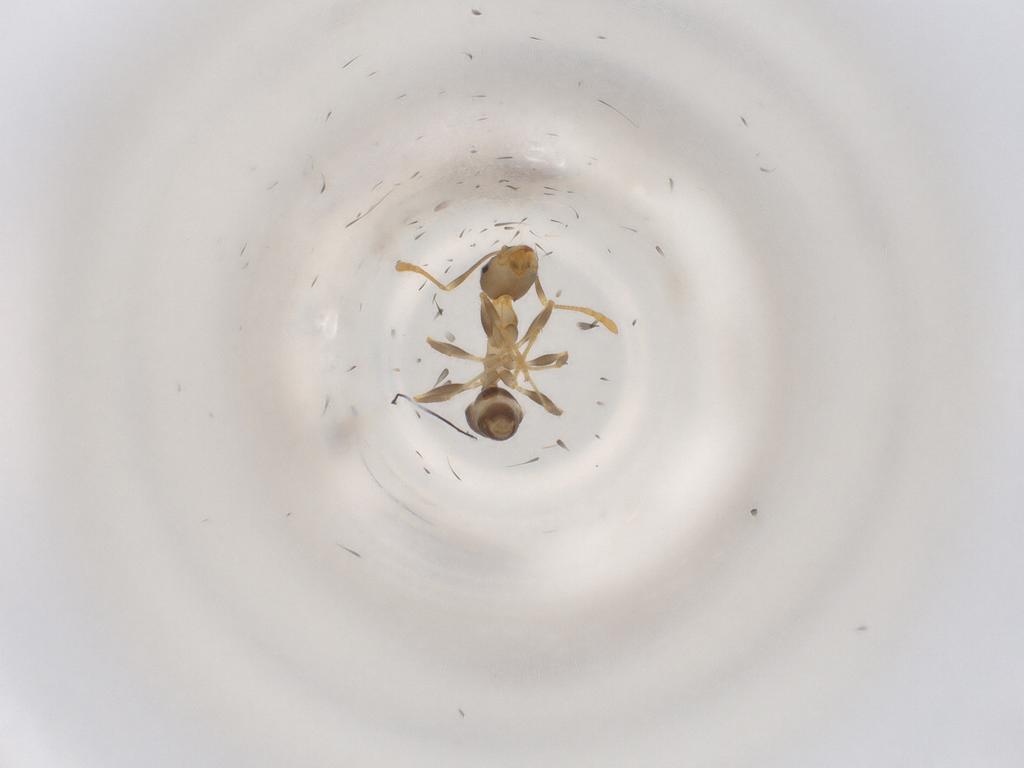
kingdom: Animalia
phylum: Arthropoda
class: Insecta
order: Hymenoptera
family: Formicidae
